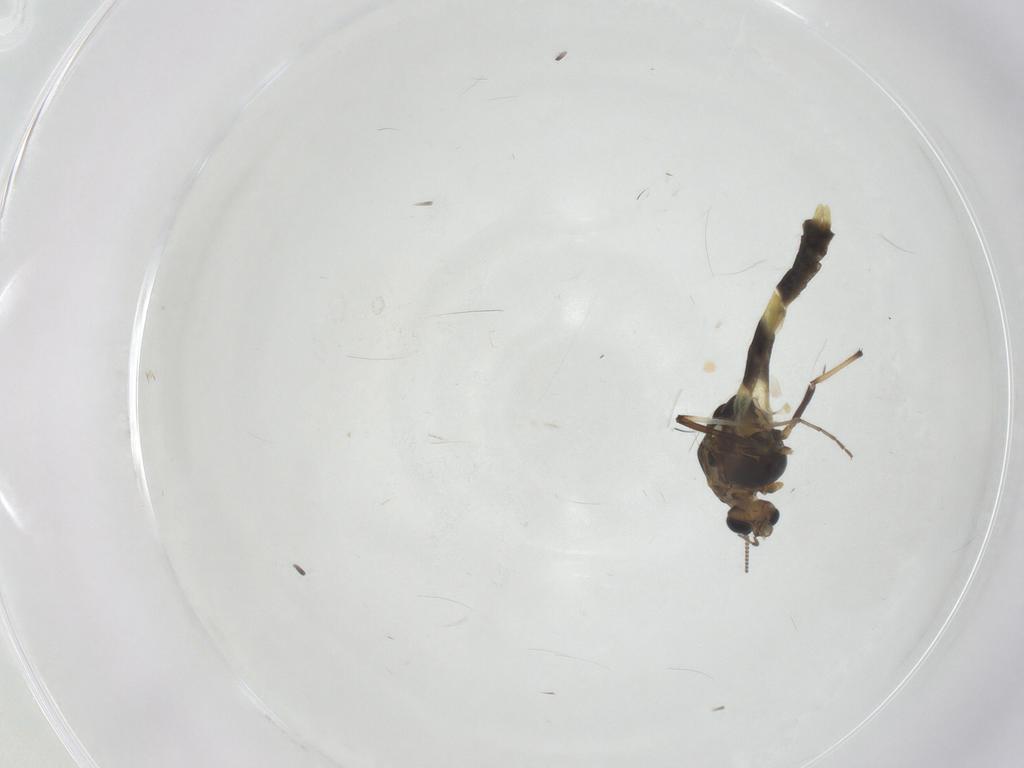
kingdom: Animalia
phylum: Arthropoda
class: Insecta
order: Diptera
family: Chironomidae
